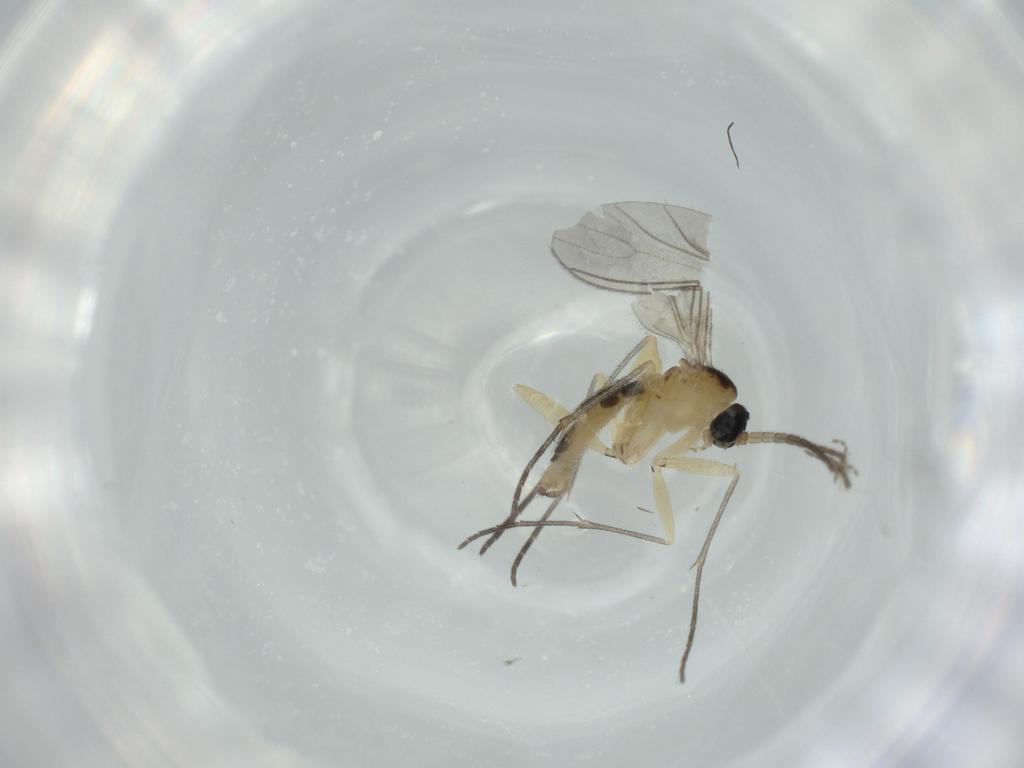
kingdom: Animalia
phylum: Arthropoda
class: Insecta
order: Diptera
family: Sciaridae
